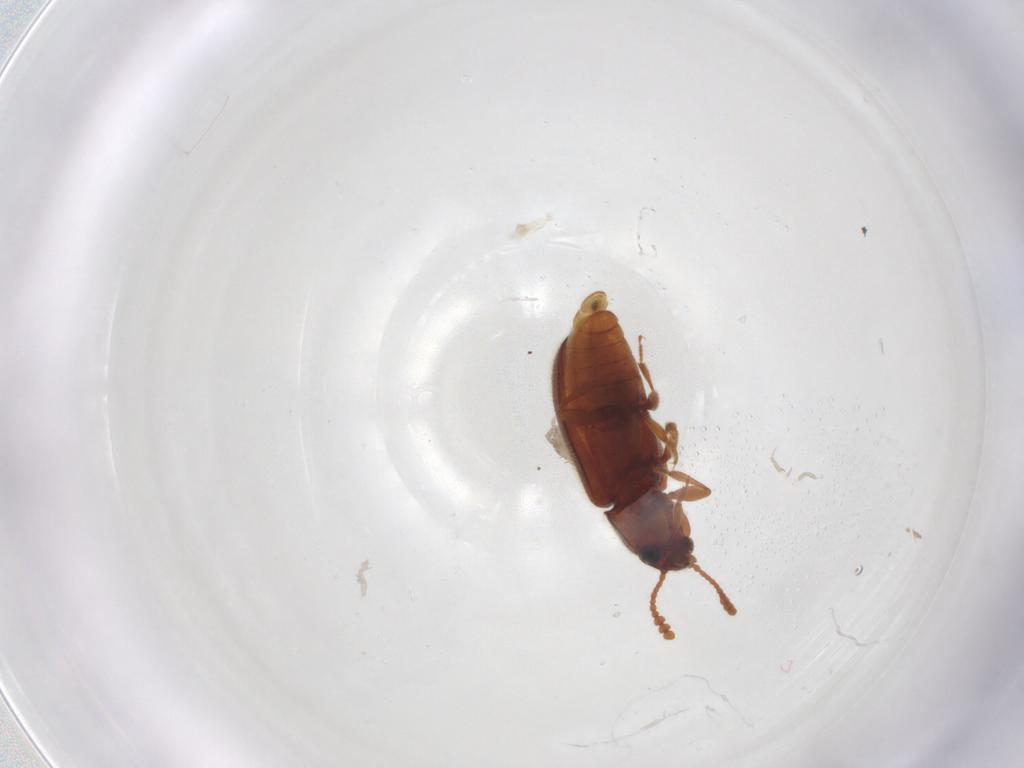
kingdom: Animalia
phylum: Arthropoda
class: Insecta
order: Coleoptera
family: Erotylidae
